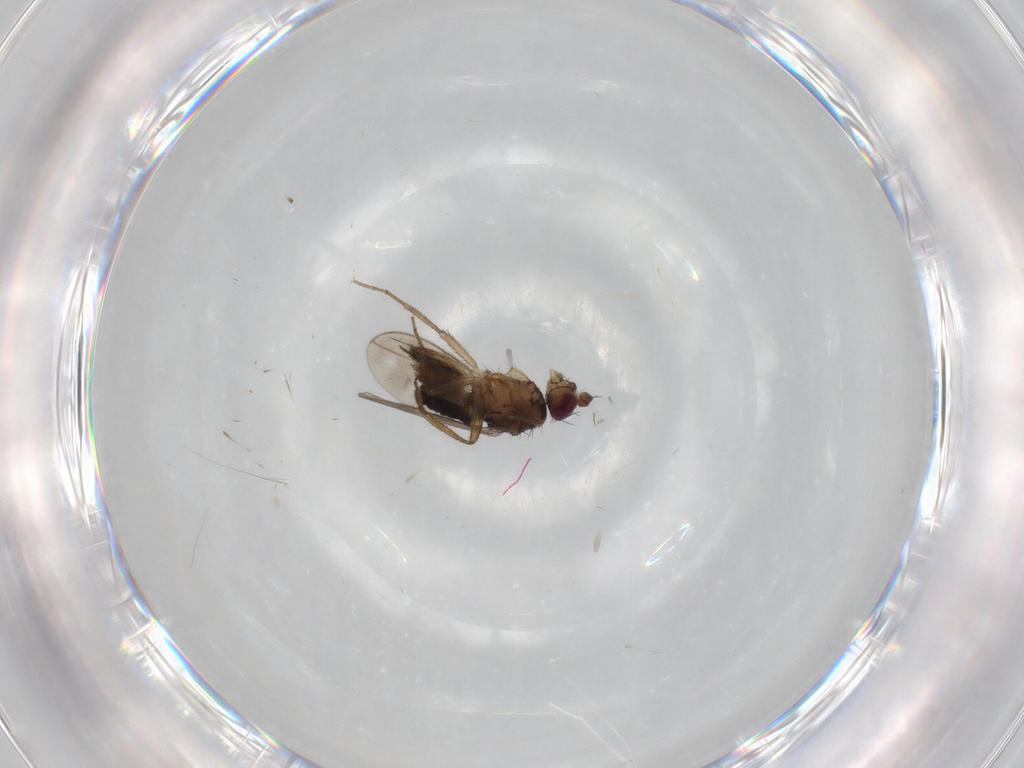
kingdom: Animalia
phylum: Arthropoda
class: Insecta
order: Diptera
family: Sphaeroceridae
